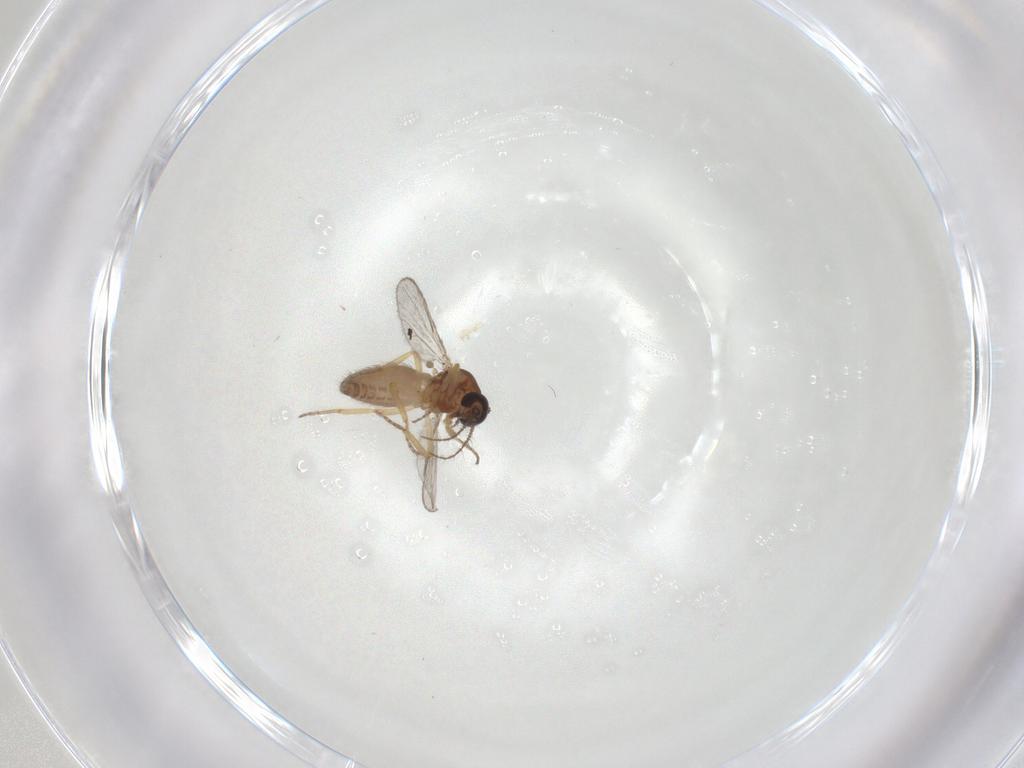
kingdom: Animalia
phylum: Arthropoda
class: Insecta
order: Diptera
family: Ceratopogonidae
